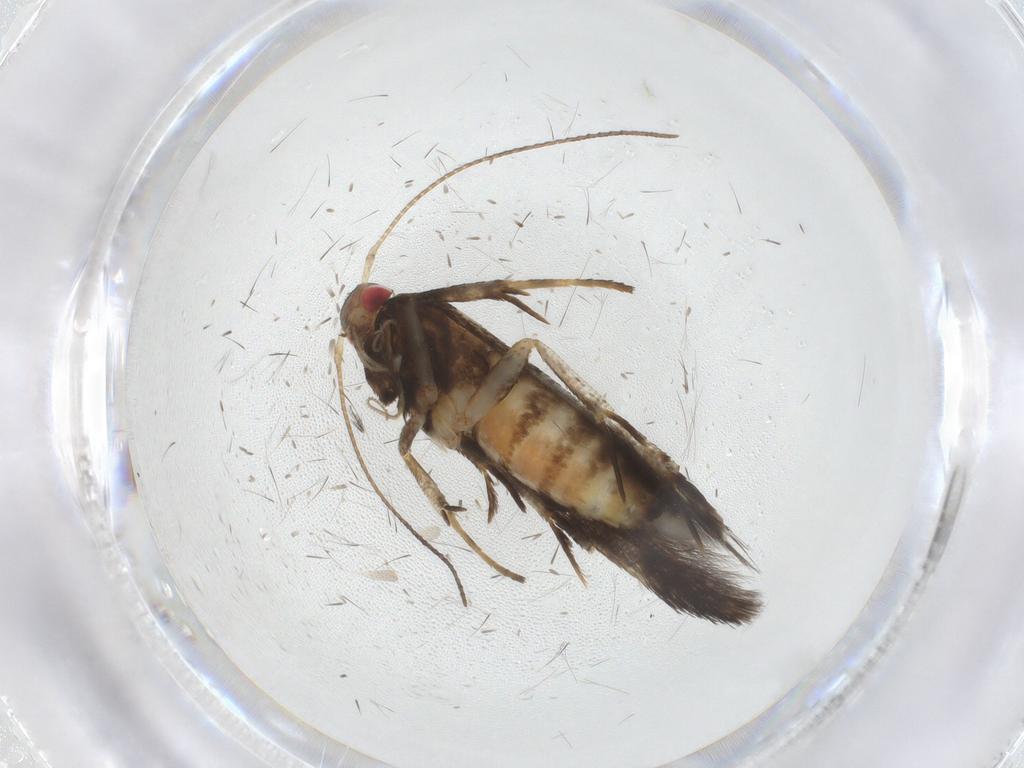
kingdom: Animalia
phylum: Arthropoda
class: Insecta
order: Lepidoptera
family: Gelechiidae
